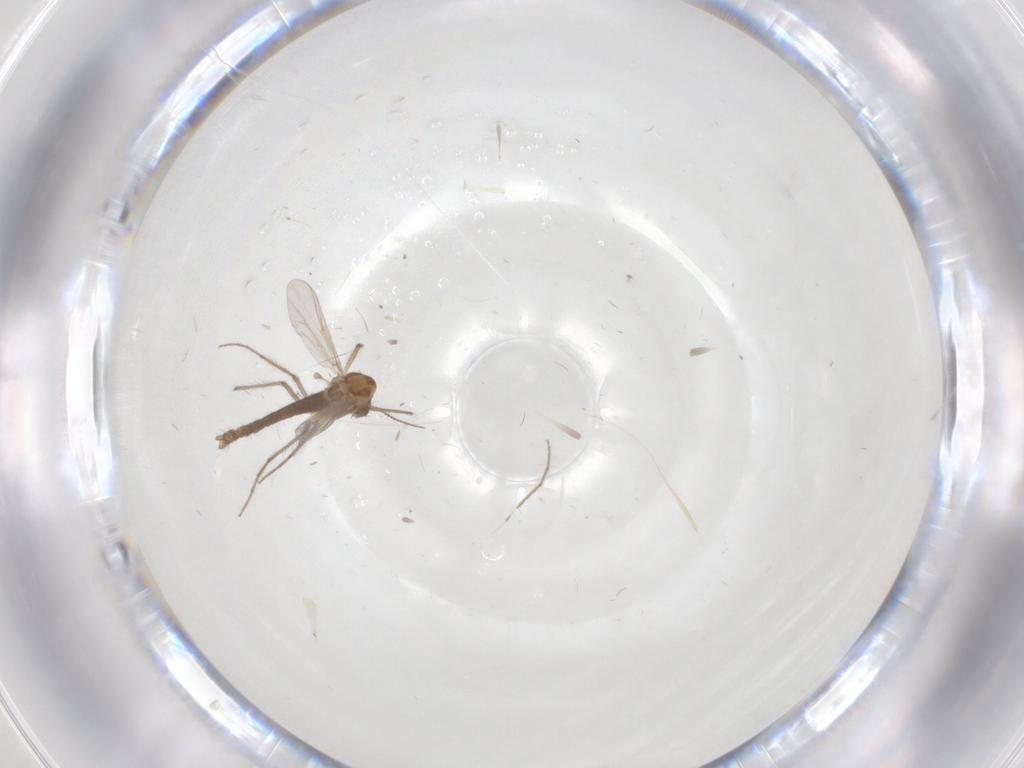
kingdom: Animalia
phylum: Arthropoda
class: Insecta
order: Diptera
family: Chironomidae
